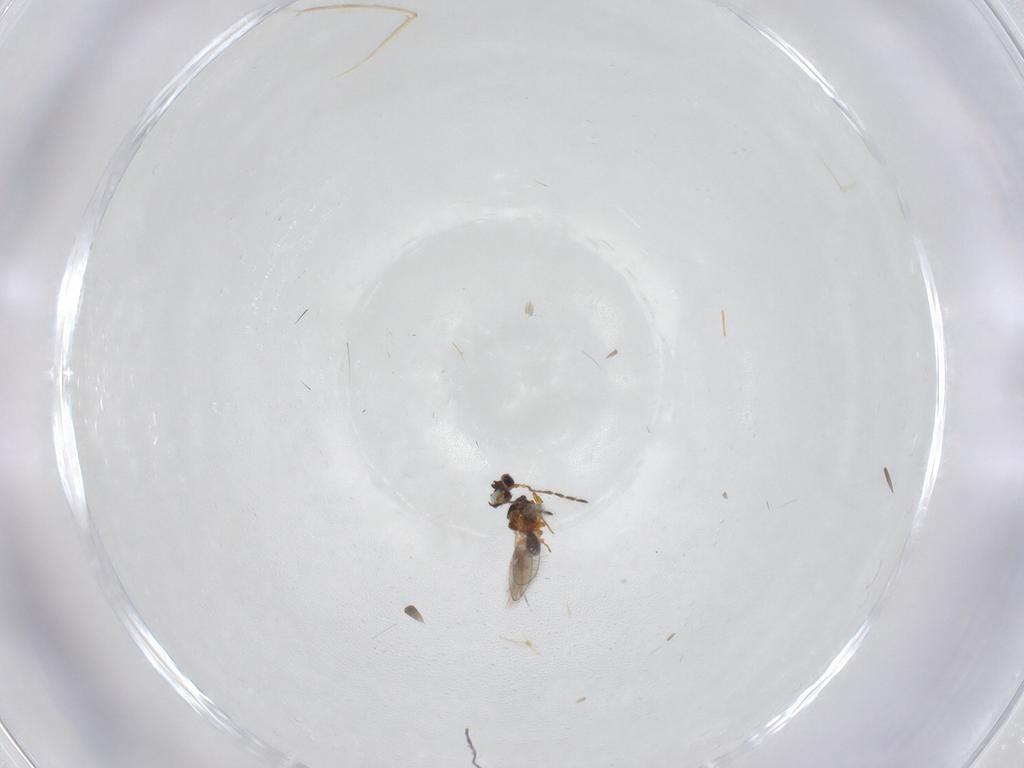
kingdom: Animalia
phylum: Arthropoda
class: Insecta
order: Hymenoptera
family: Platygastridae
